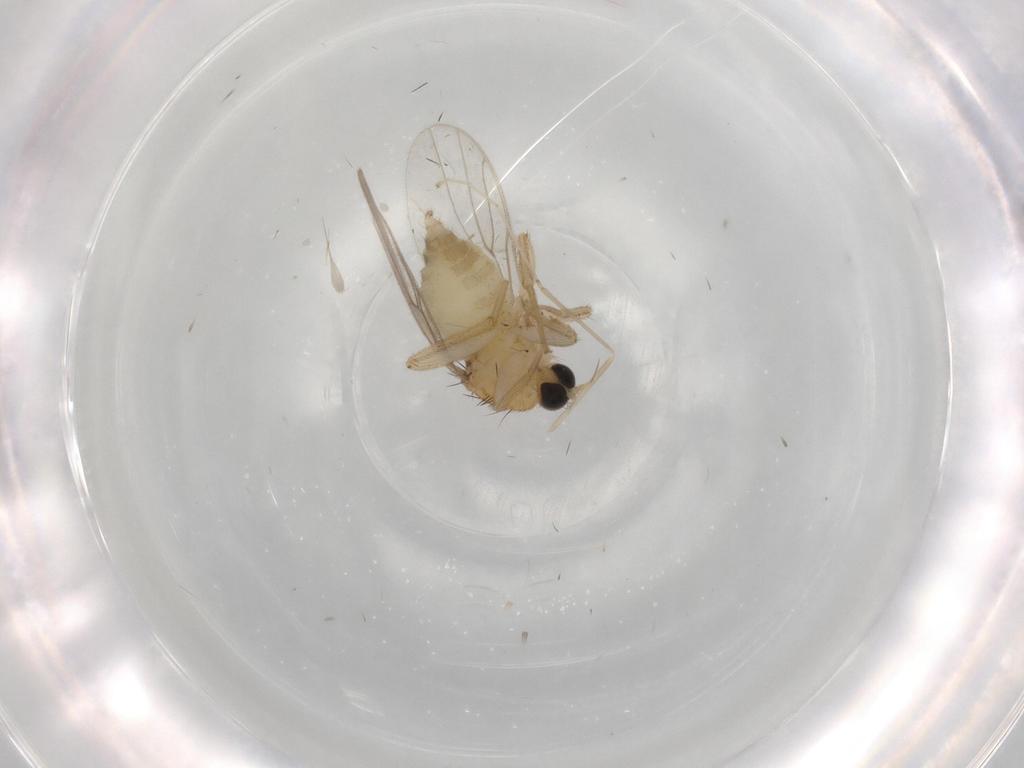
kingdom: Animalia
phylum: Arthropoda
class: Insecta
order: Diptera
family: Hybotidae
